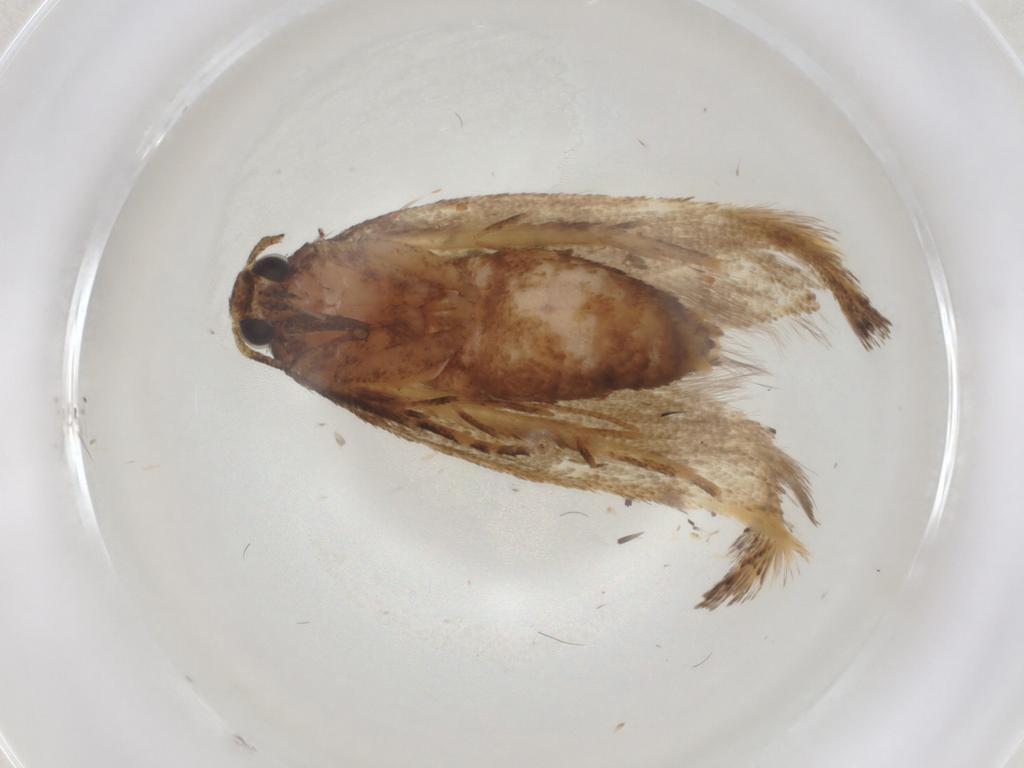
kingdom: Animalia
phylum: Arthropoda
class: Insecta
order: Lepidoptera
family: Oecophoridae
